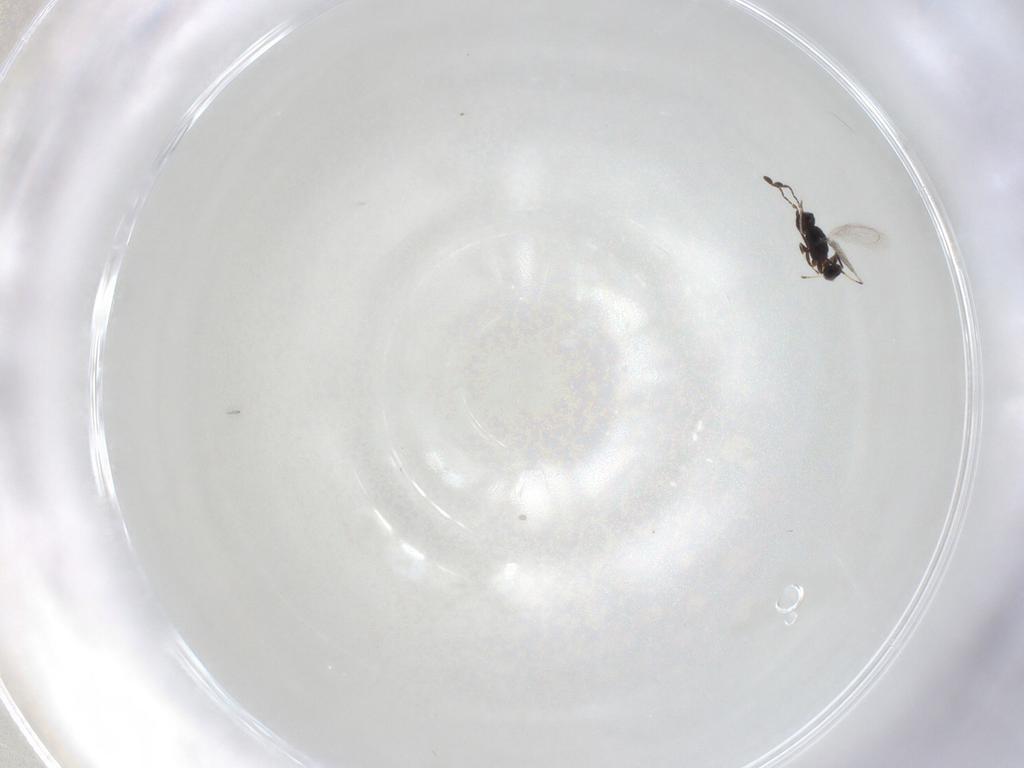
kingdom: Animalia
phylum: Arthropoda
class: Insecta
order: Hymenoptera
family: Mymaridae
